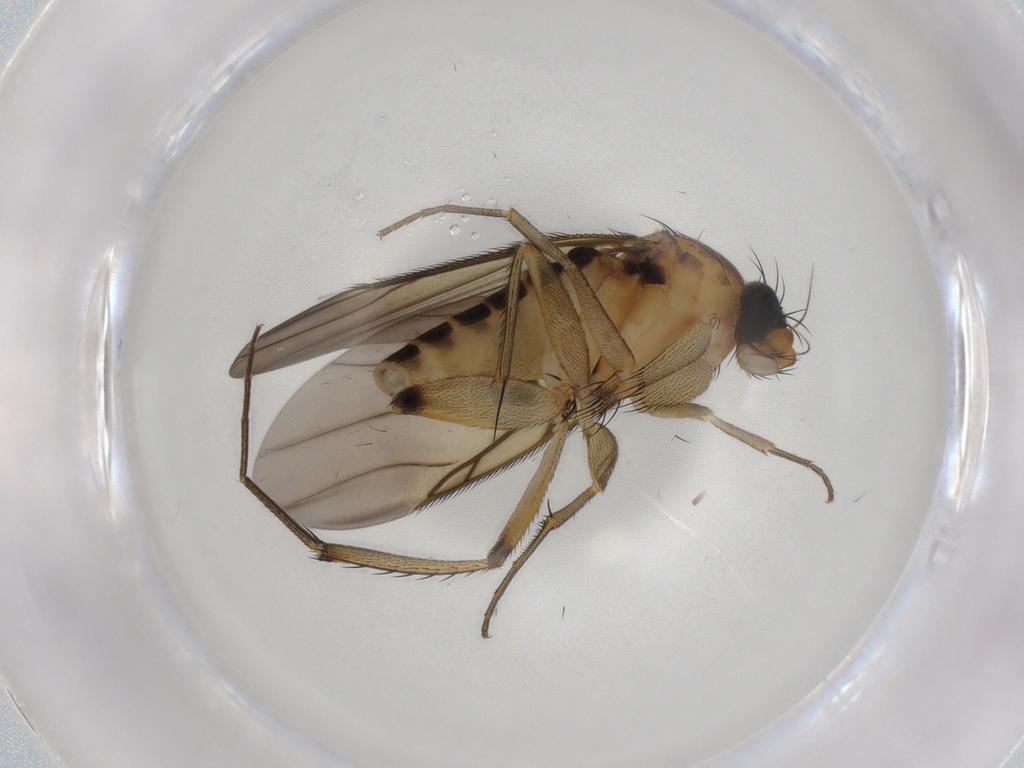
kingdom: Animalia
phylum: Arthropoda
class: Insecta
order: Diptera
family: Phoridae
